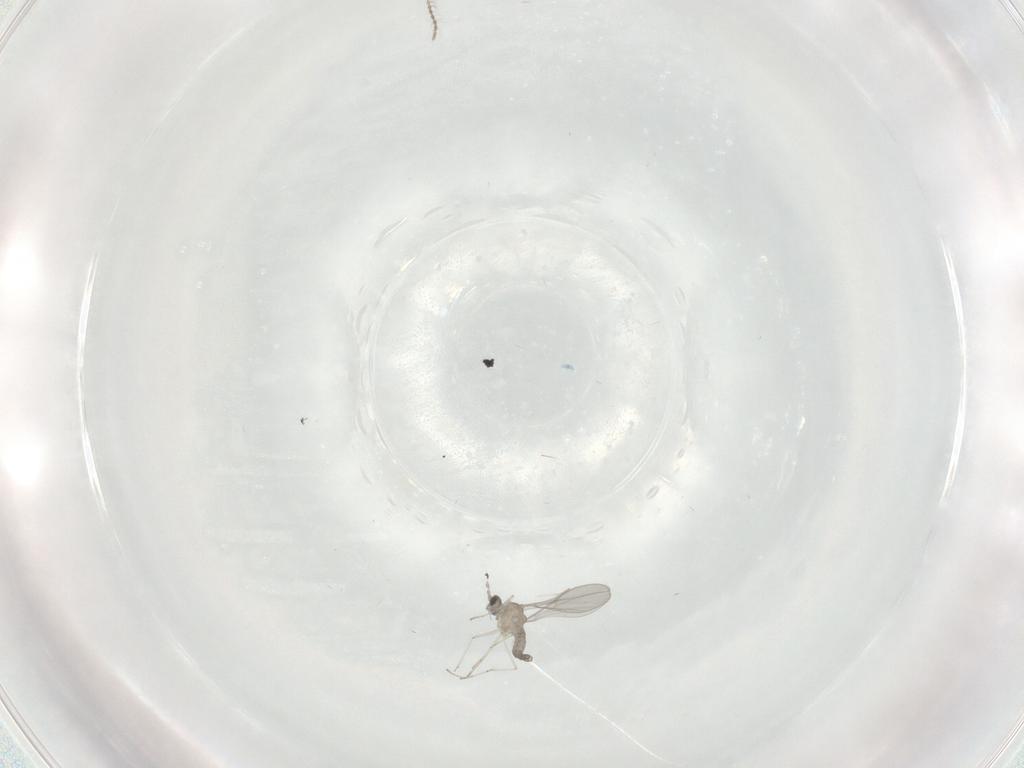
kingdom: Animalia
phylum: Arthropoda
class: Insecta
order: Diptera
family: Ceratopogonidae
